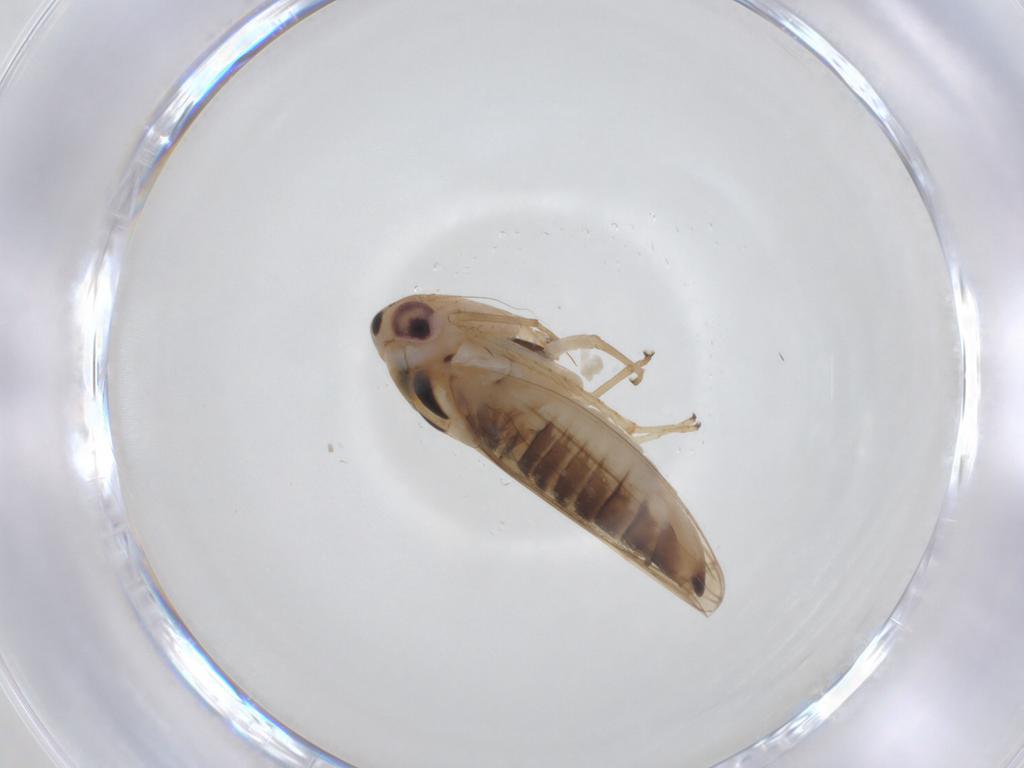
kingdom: Animalia
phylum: Arthropoda
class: Insecta
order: Hemiptera
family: Cicadellidae
